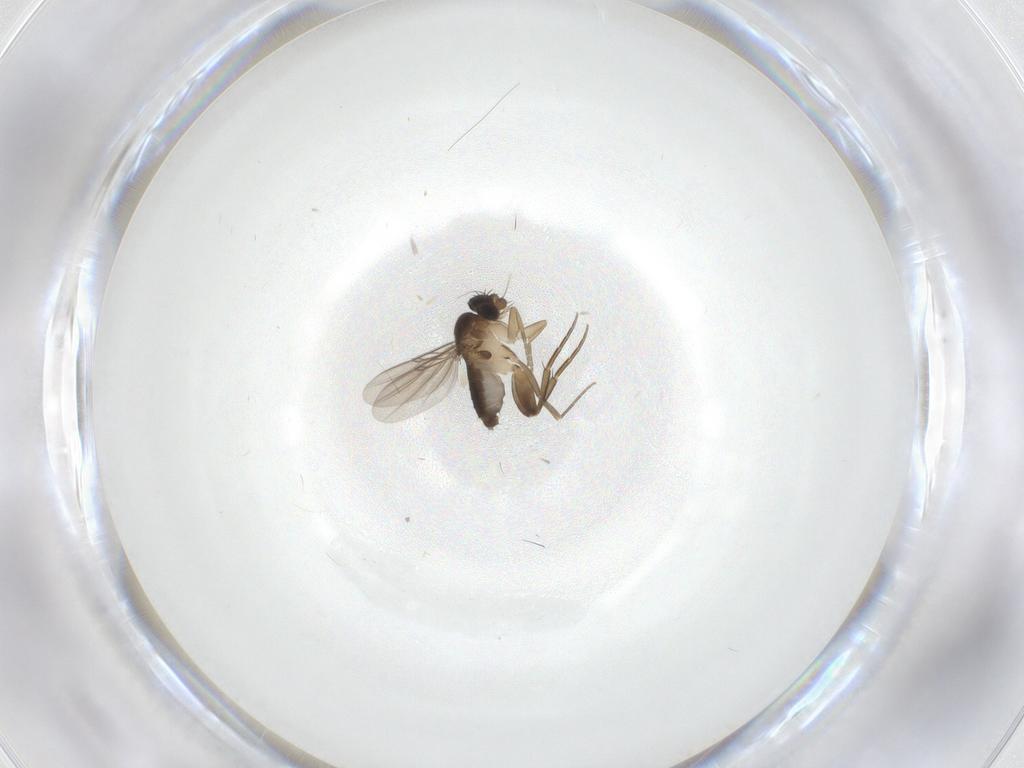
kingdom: Animalia
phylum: Arthropoda
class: Insecta
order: Diptera
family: Phoridae
